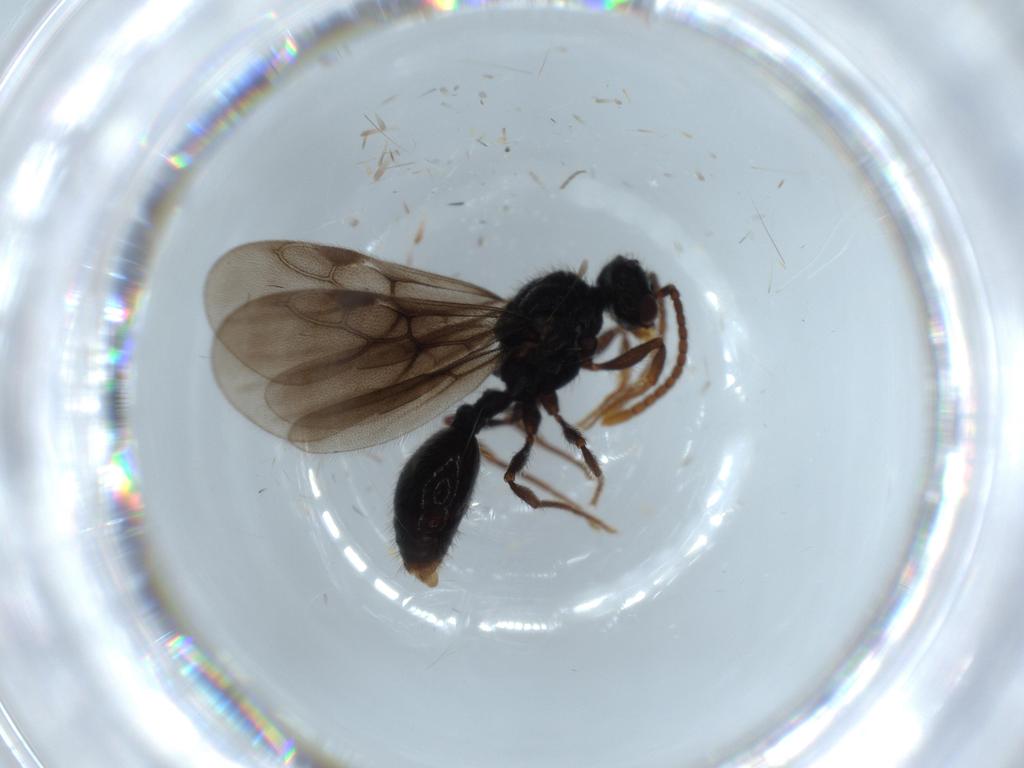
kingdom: Animalia
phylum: Arthropoda
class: Insecta
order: Hymenoptera
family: Diapriidae
